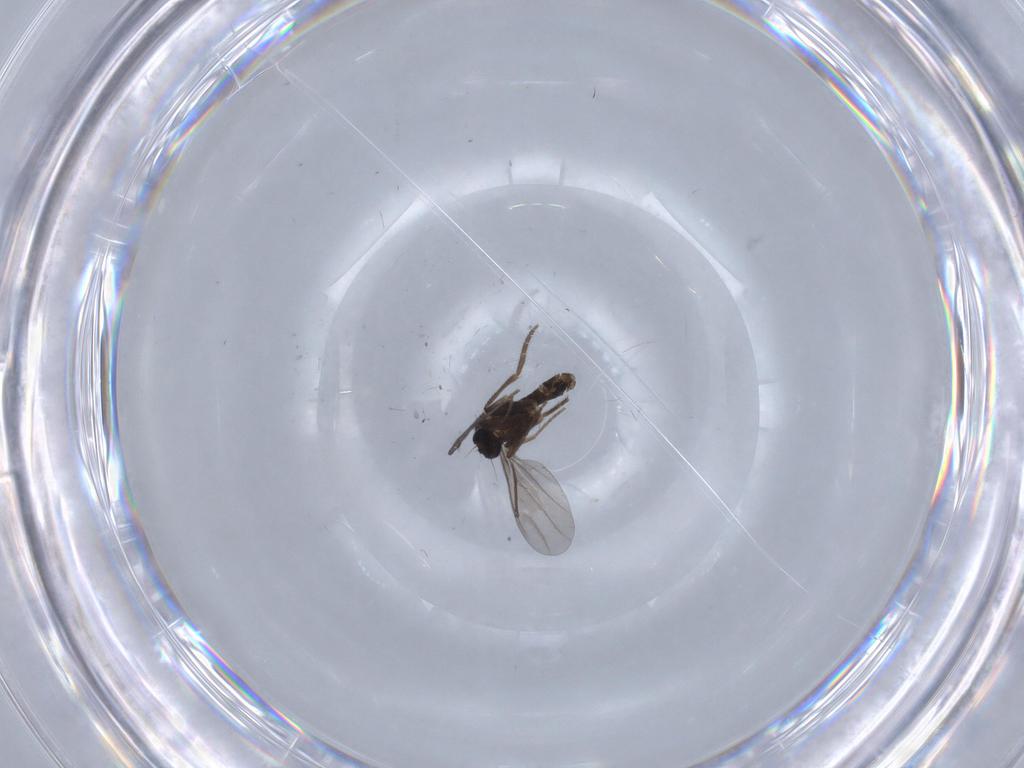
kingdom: Animalia
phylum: Arthropoda
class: Insecta
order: Diptera
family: Phoridae
